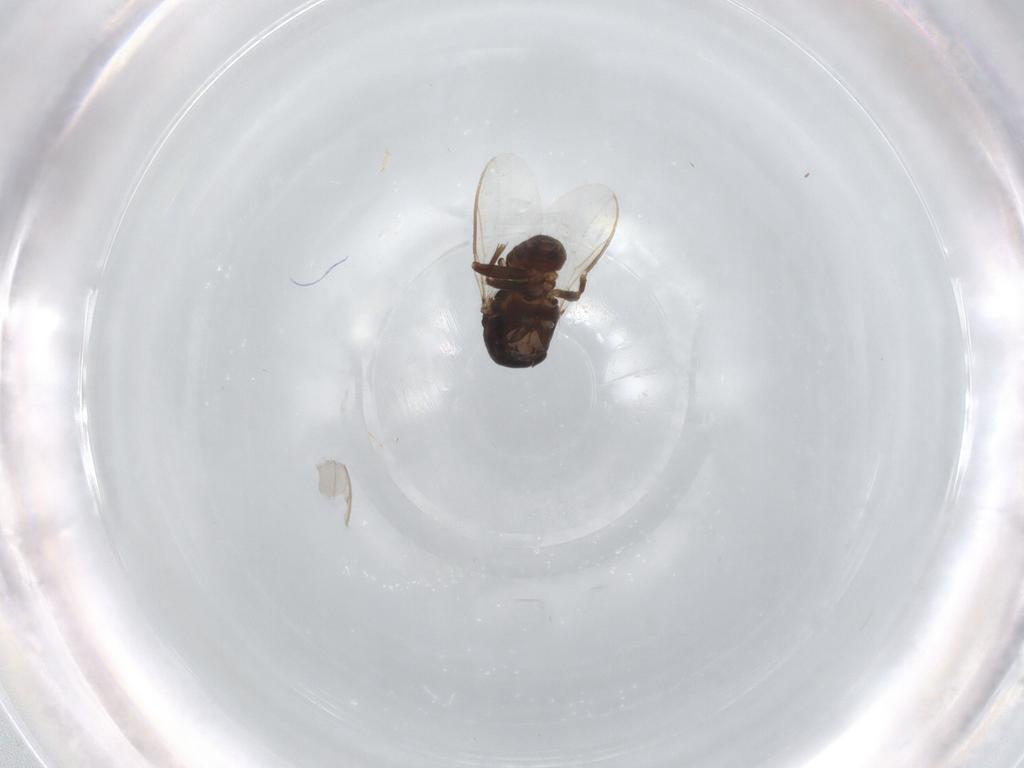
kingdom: Animalia
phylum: Arthropoda
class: Insecta
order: Diptera
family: Sphaeroceridae
